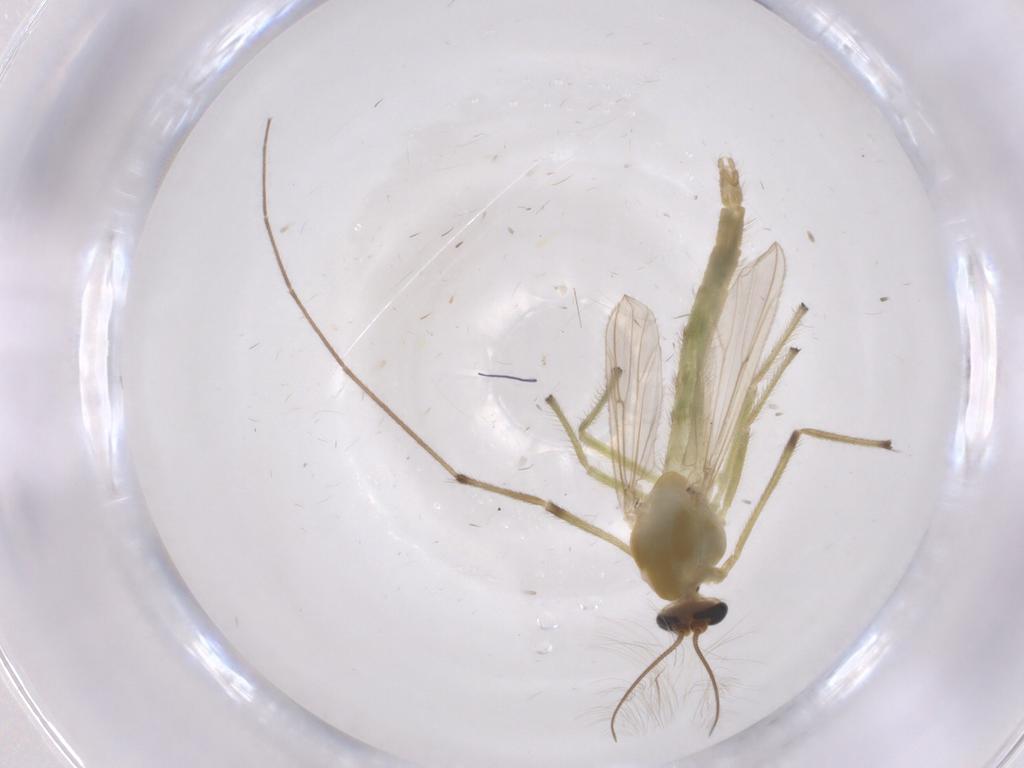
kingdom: Animalia
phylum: Arthropoda
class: Insecta
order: Diptera
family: Chironomidae
